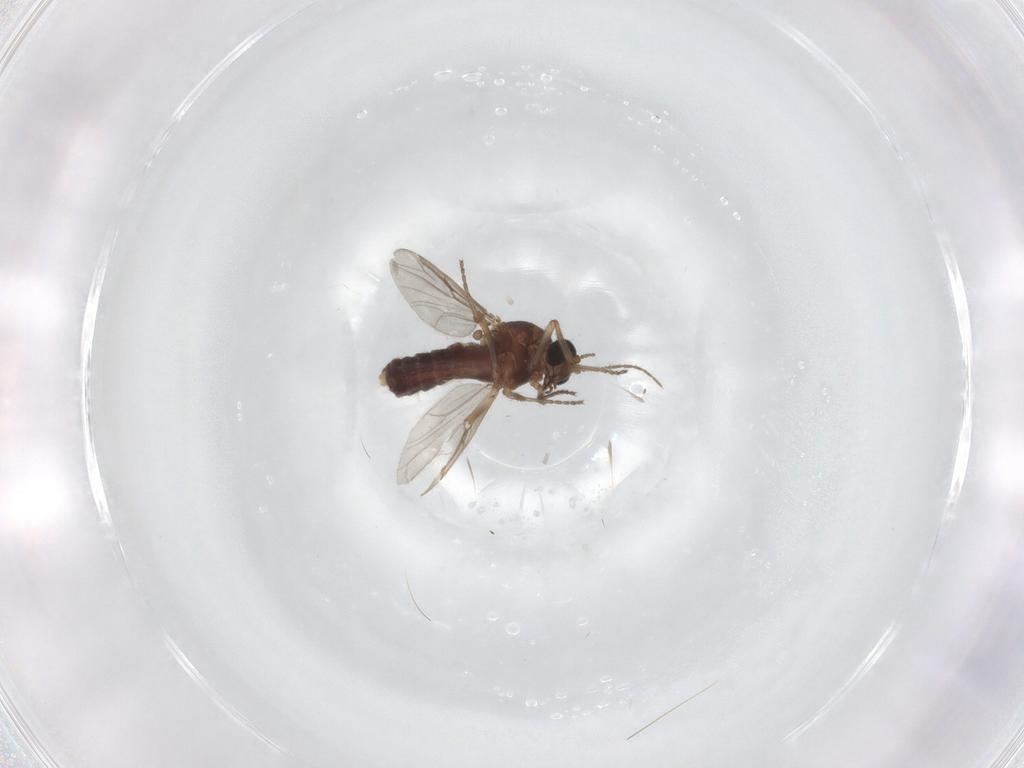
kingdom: Animalia
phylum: Arthropoda
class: Insecta
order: Diptera
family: Ceratopogonidae
